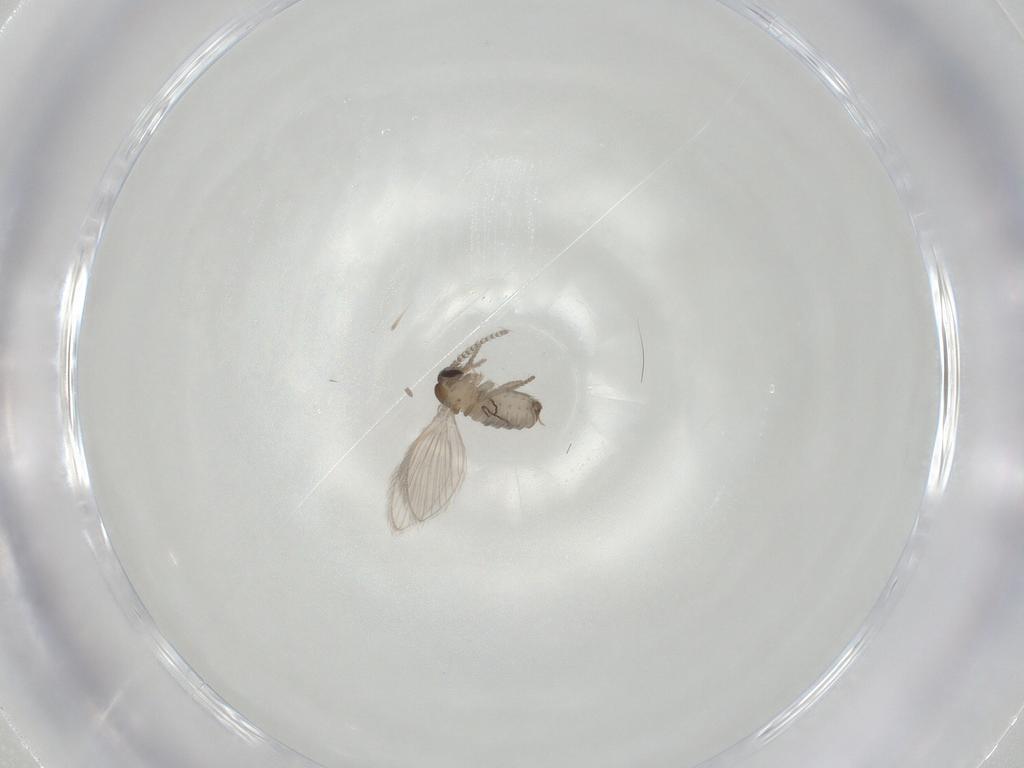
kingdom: Animalia
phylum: Arthropoda
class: Insecta
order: Diptera
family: Psychodidae
